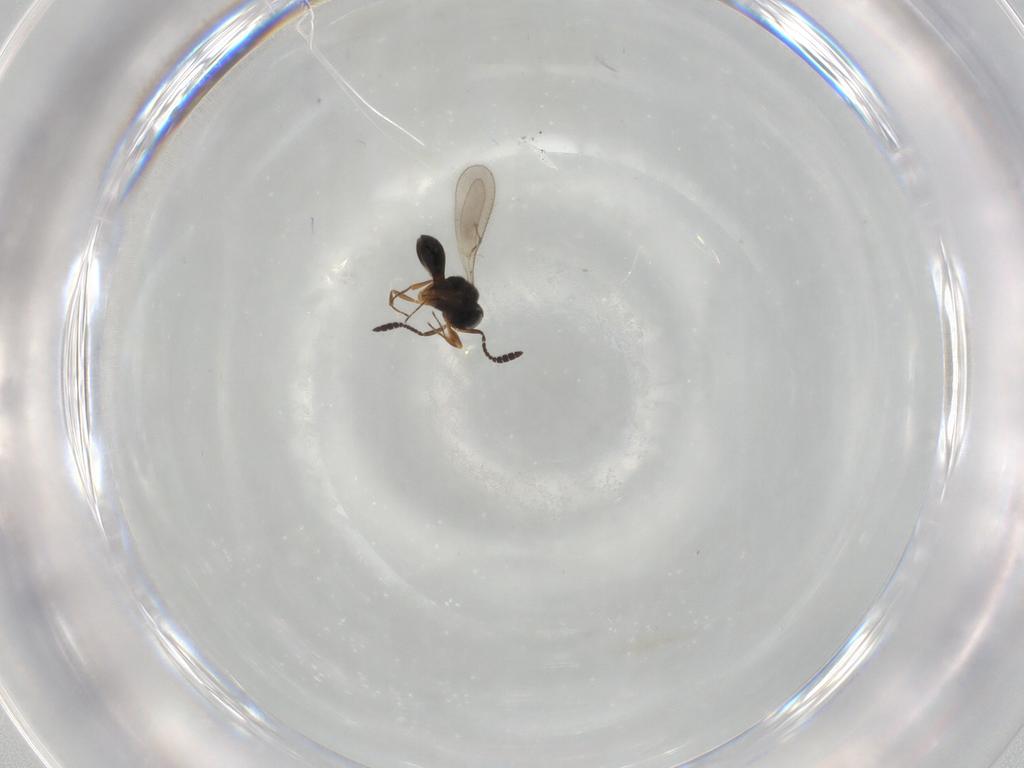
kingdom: Animalia
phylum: Arthropoda
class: Insecta
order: Hymenoptera
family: Scelionidae
